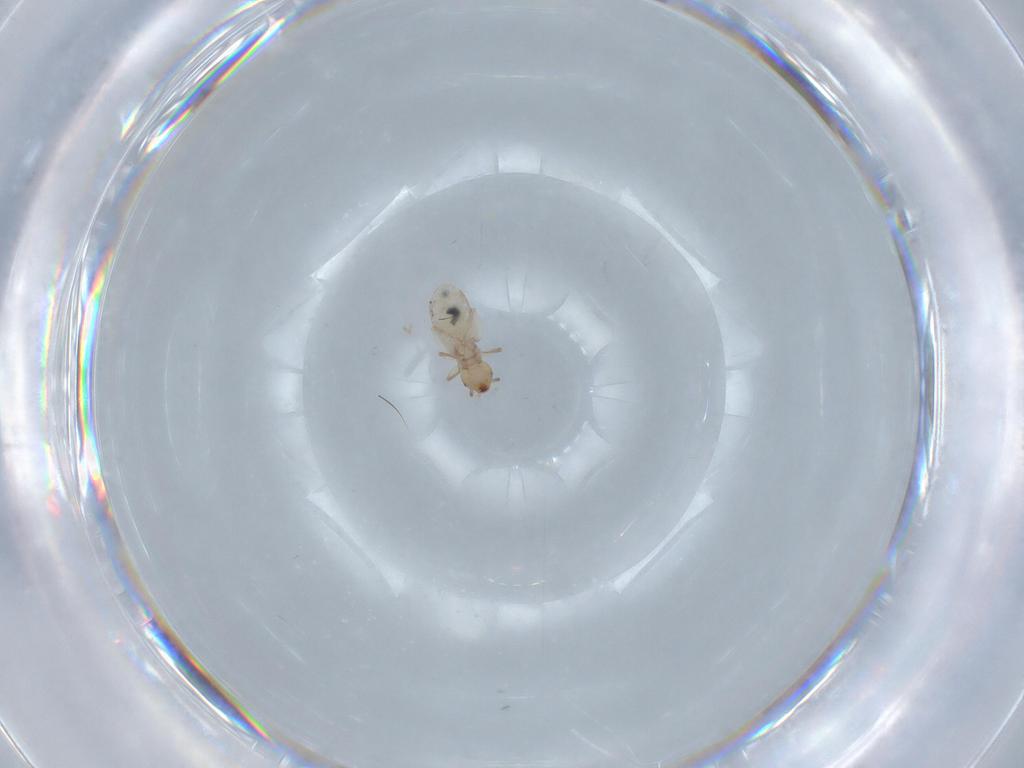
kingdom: Animalia
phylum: Arthropoda
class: Insecta
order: Psocodea
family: Liposcelididae
